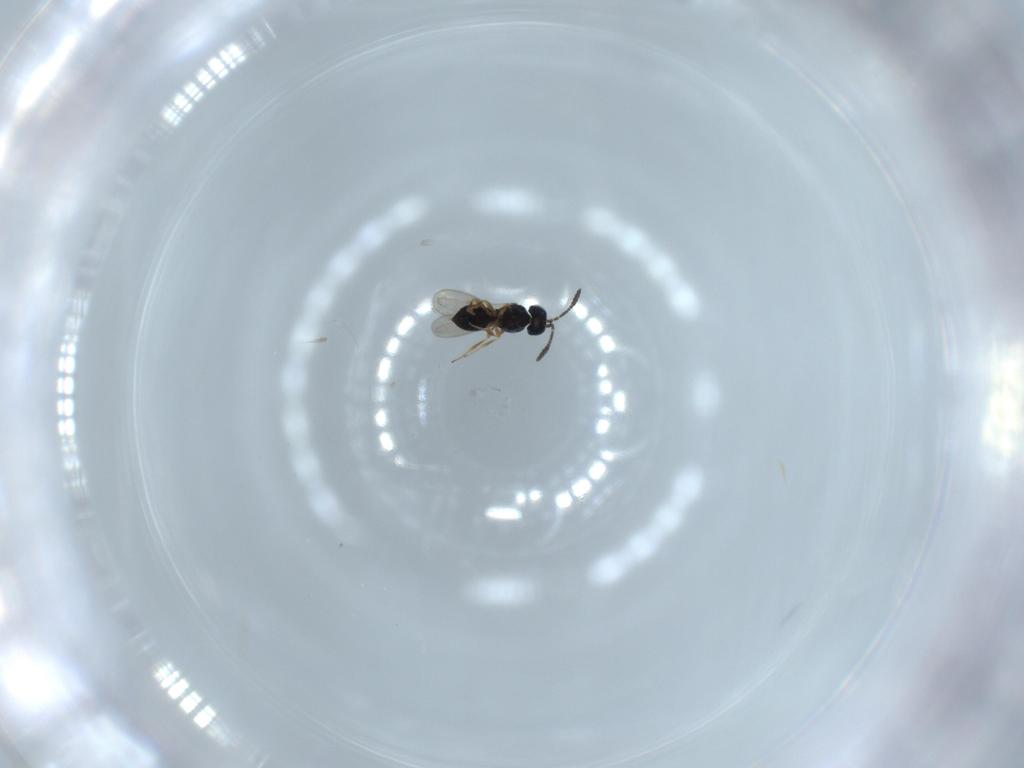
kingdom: Animalia
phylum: Arthropoda
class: Insecta
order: Hymenoptera
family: Scelionidae
